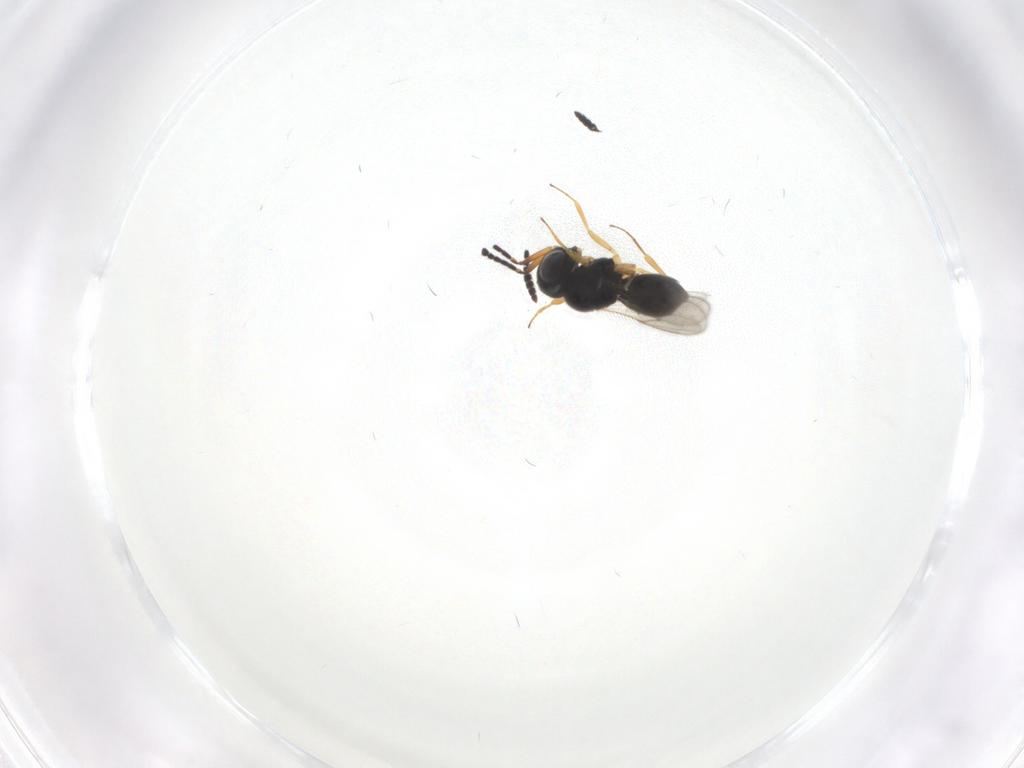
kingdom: Animalia
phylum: Arthropoda
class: Insecta
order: Hymenoptera
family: Scelionidae
